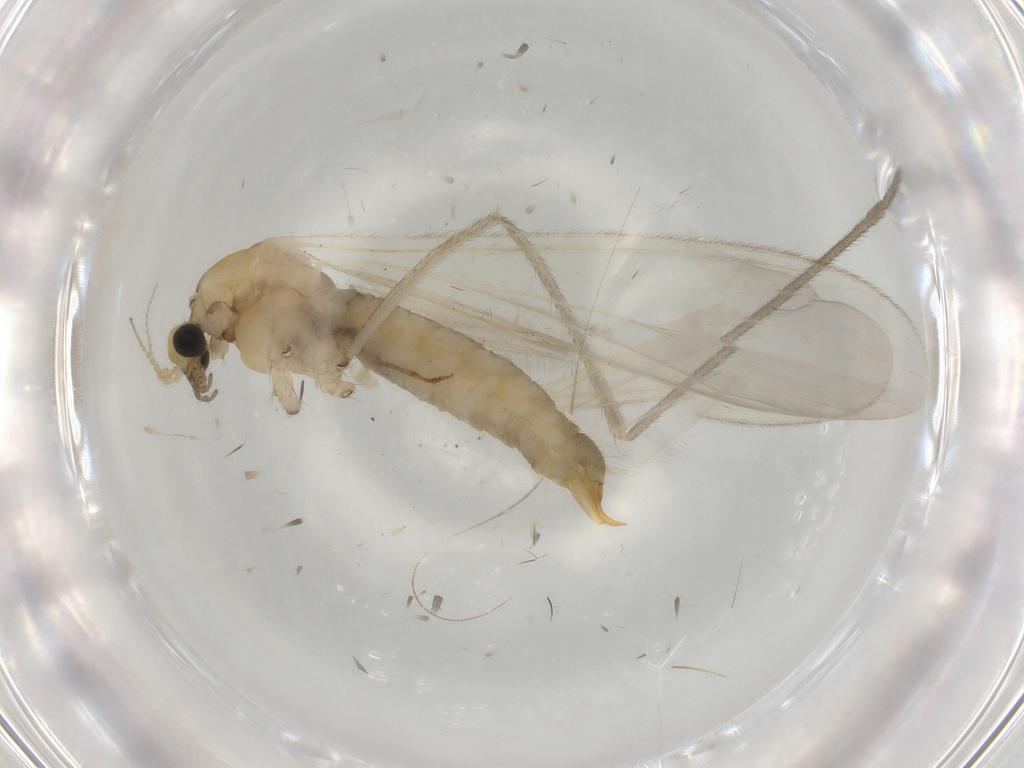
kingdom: Animalia
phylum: Arthropoda
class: Insecta
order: Diptera
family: Limoniidae
